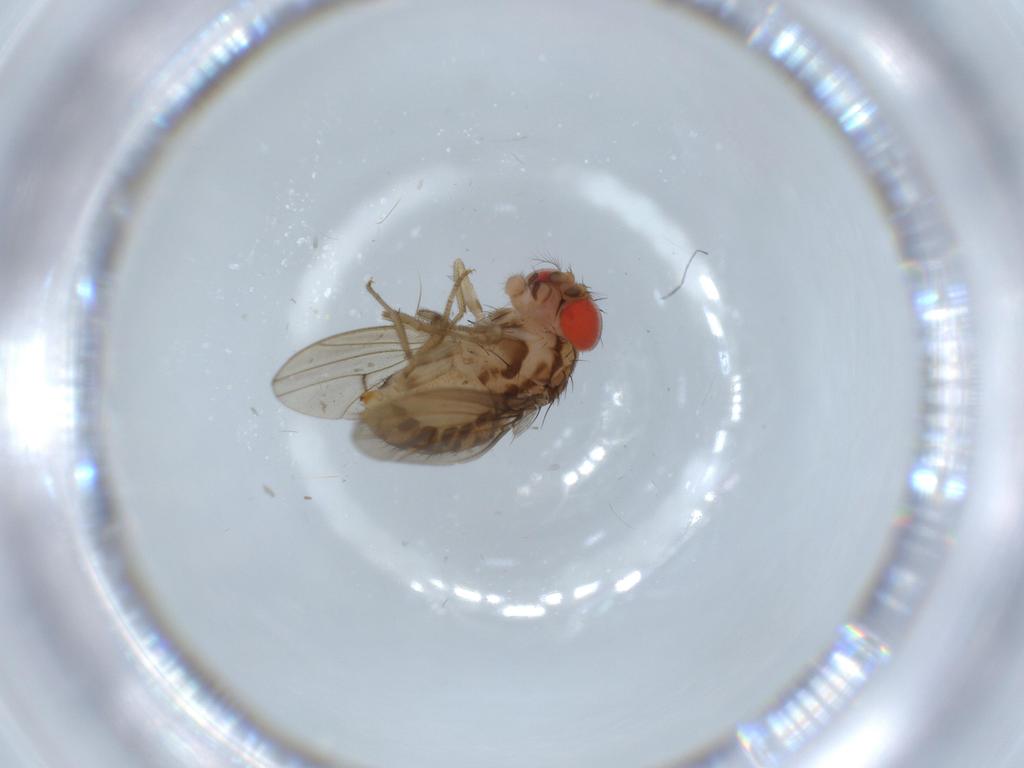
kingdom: Animalia
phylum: Arthropoda
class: Insecta
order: Diptera
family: Drosophilidae
